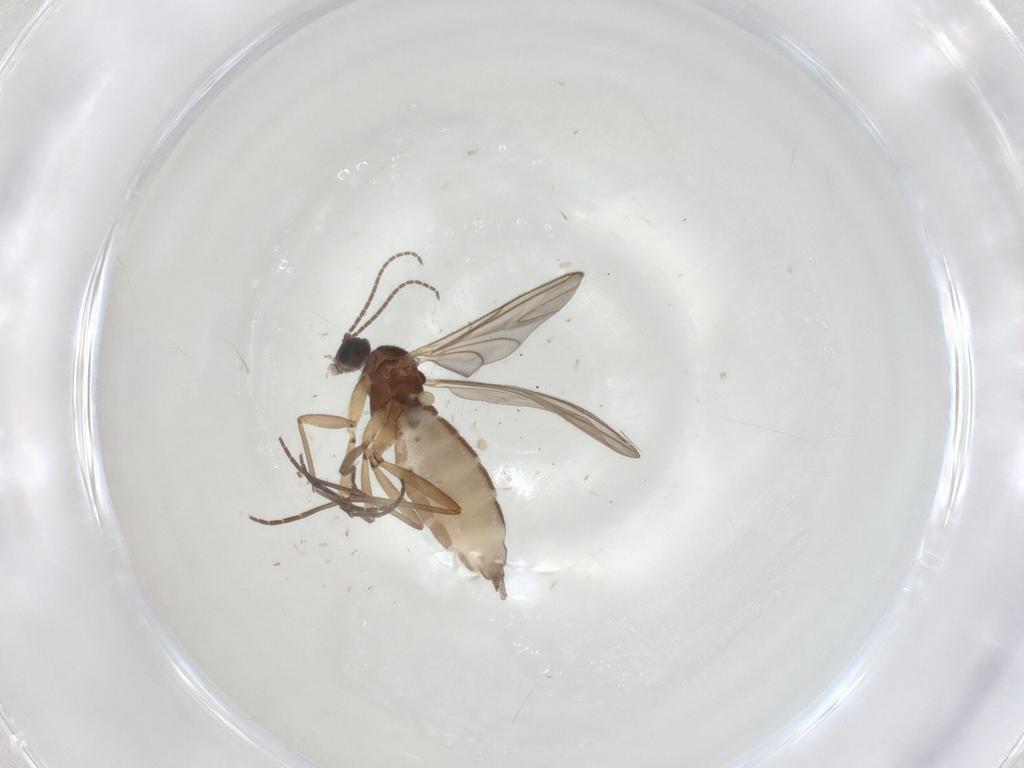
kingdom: Animalia
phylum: Arthropoda
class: Insecta
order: Diptera
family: Sciaridae
